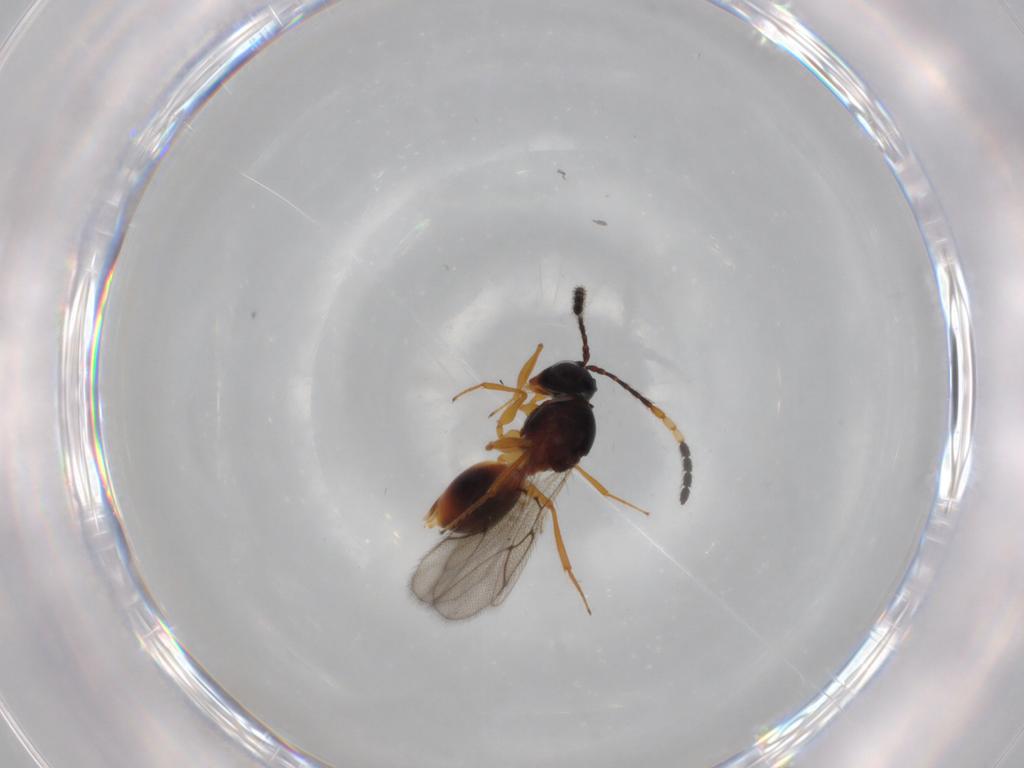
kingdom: Animalia
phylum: Arthropoda
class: Insecta
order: Hymenoptera
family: Figitidae
